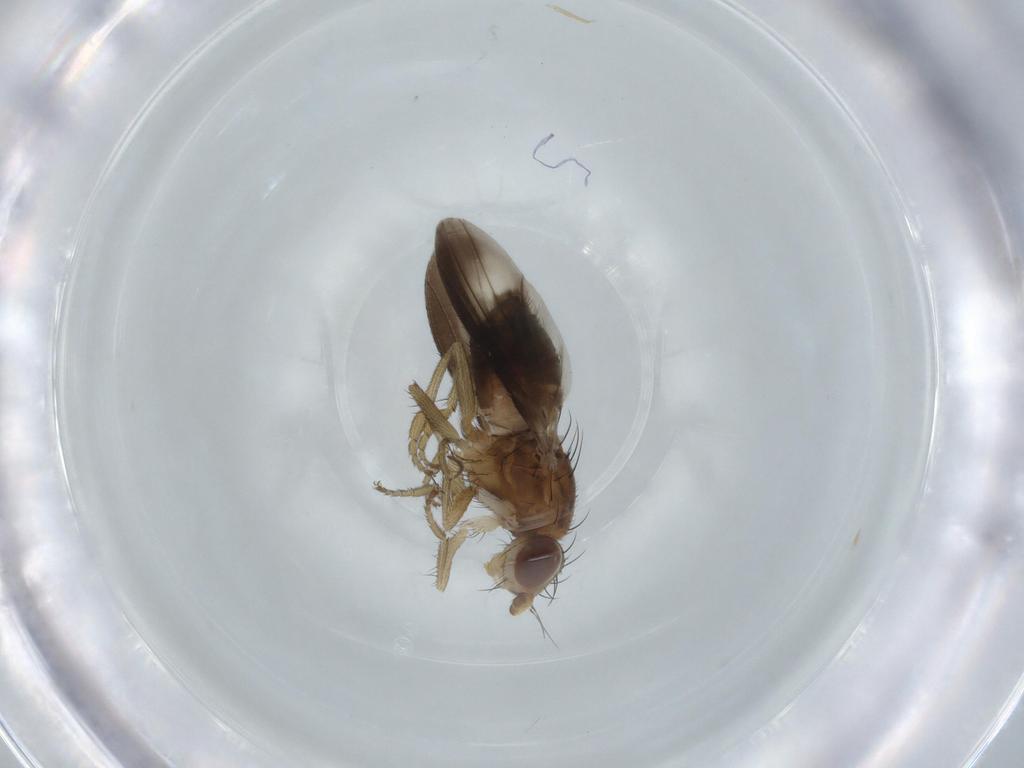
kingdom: Animalia
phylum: Arthropoda
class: Insecta
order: Diptera
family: Heleomyzidae
